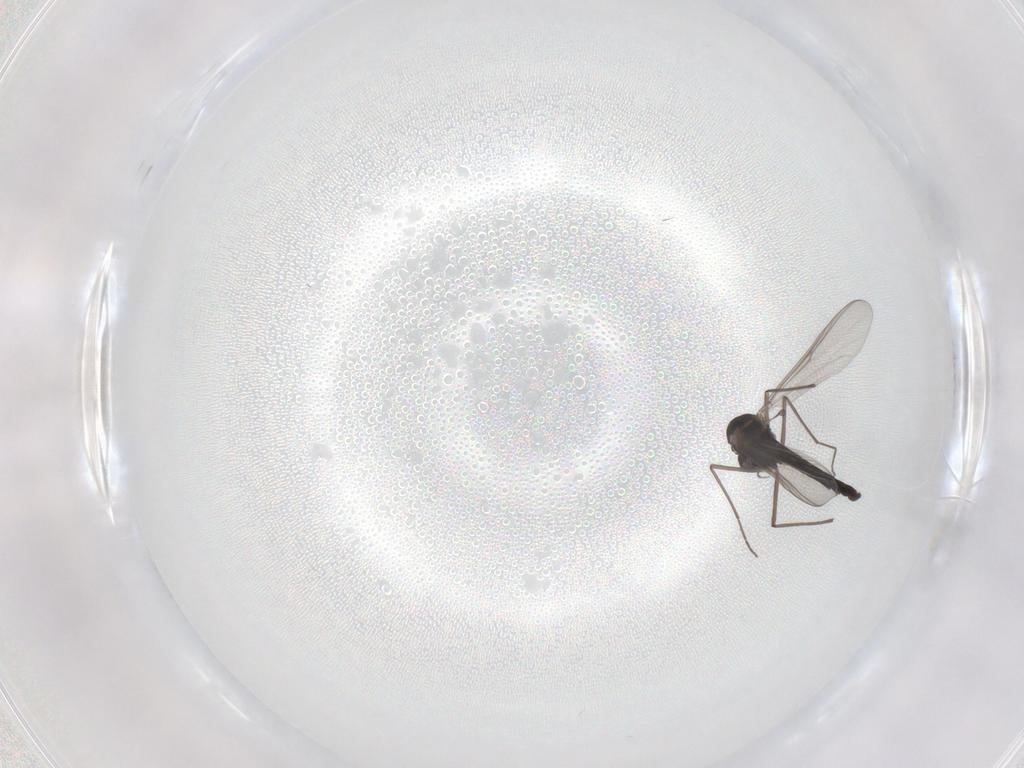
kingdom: Animalia
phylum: Arthropoda
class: Insecta
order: Diptera
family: Chironomidae
